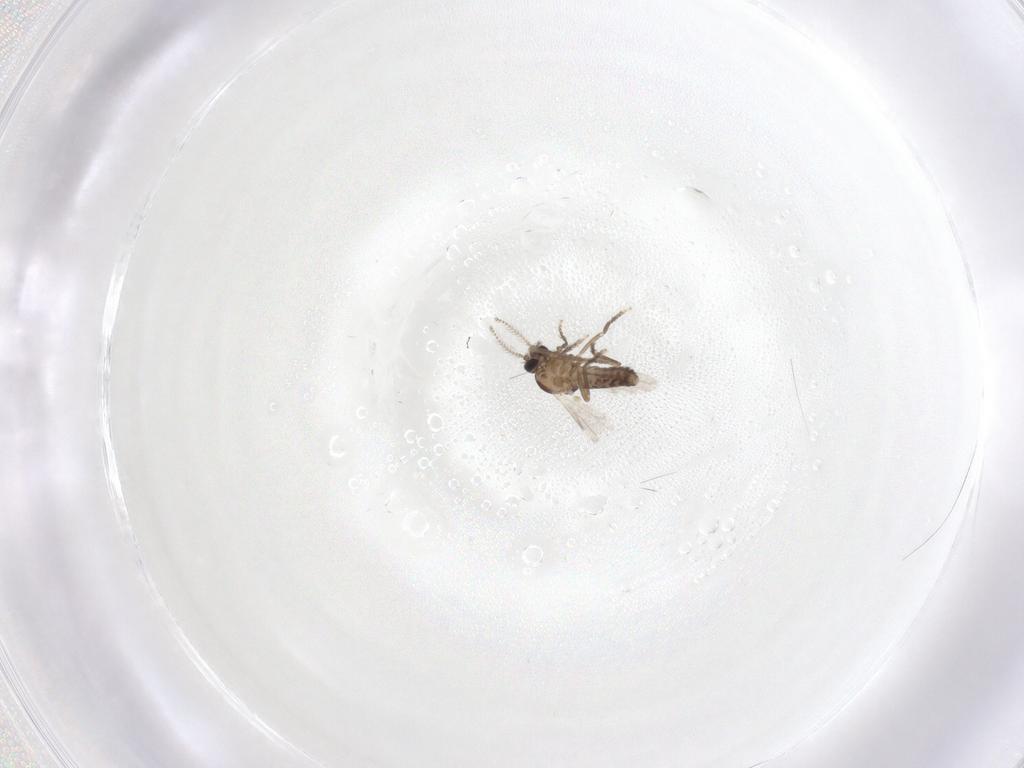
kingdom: Animalia
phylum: Arthropoda
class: Insecta
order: Diptera
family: Ceratopogonidae
